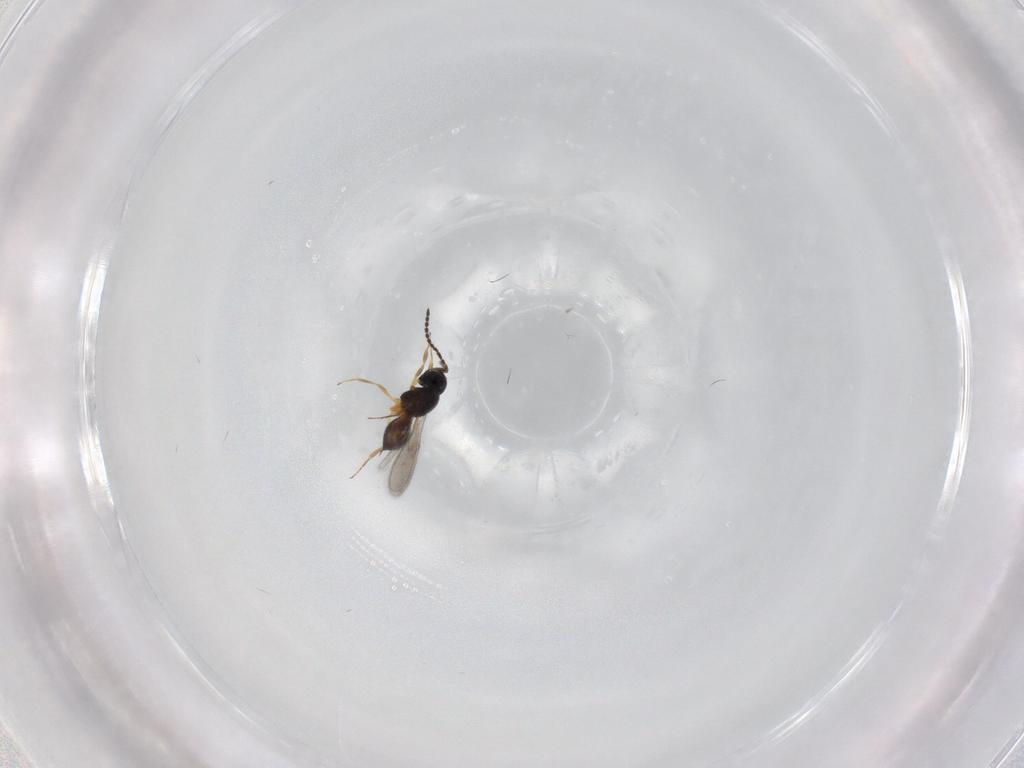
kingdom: Animalia
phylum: Arthropoda
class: Insecta
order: Hymenoptera
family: Scelionidae
